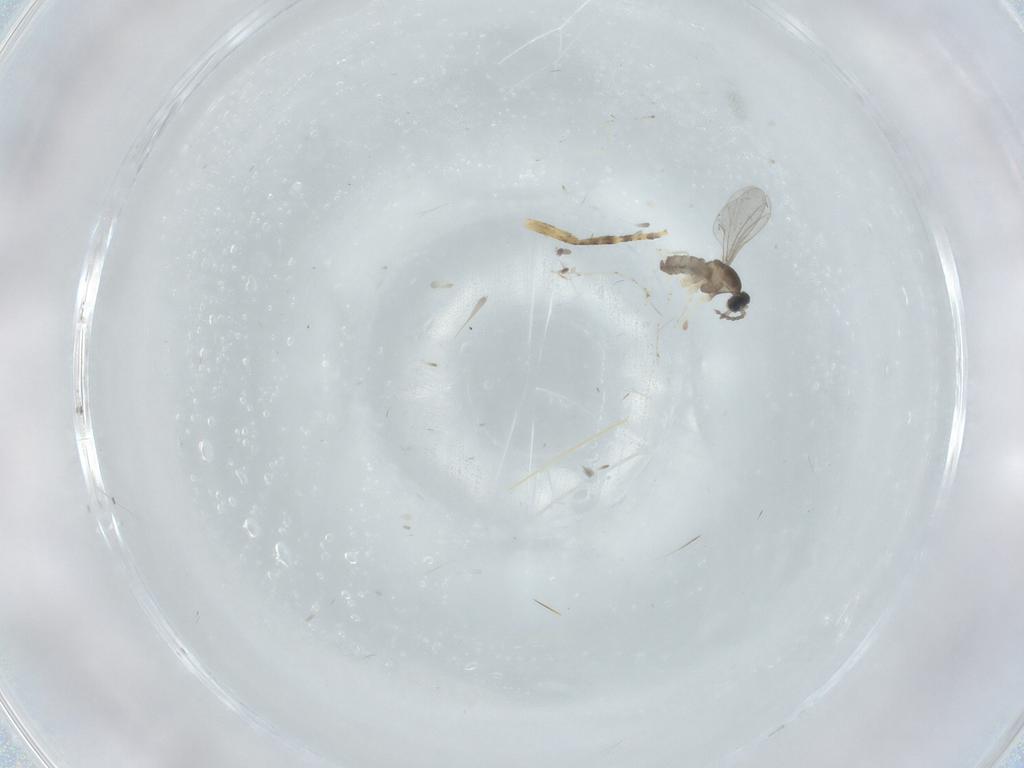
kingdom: Animalia
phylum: Arthropoda
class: Insecta
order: Diptera
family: Cecidomyiidae
